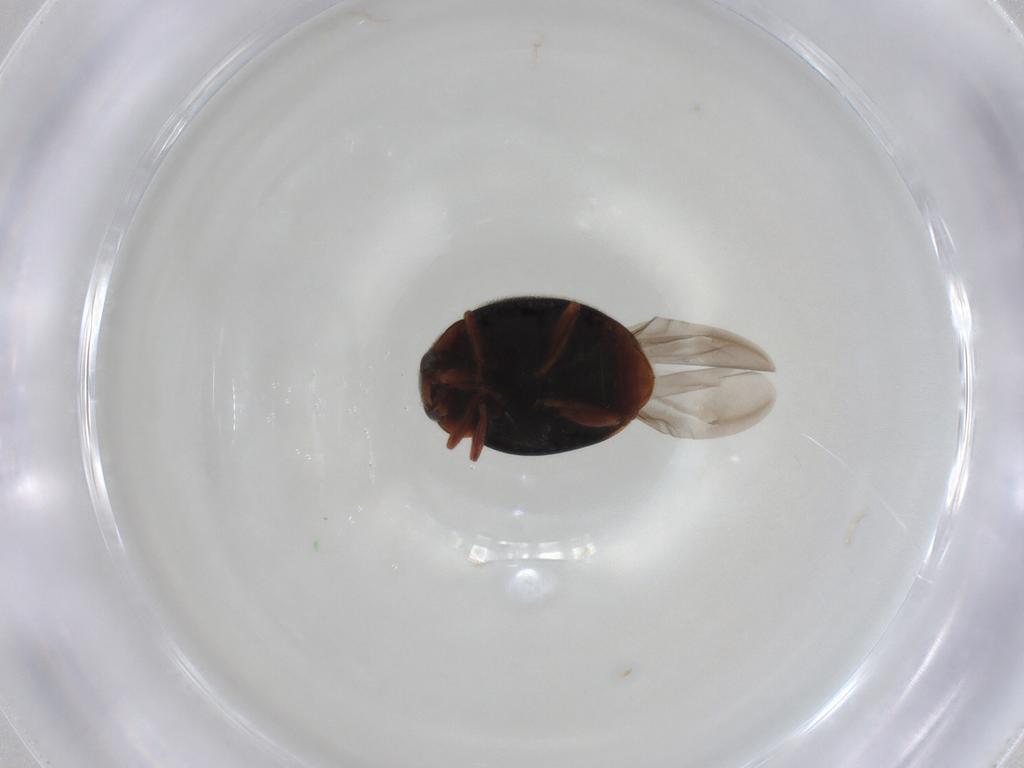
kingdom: Animalia
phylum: Arthropoda
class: Insecta
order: Coleoptera
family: Coccinellidae
